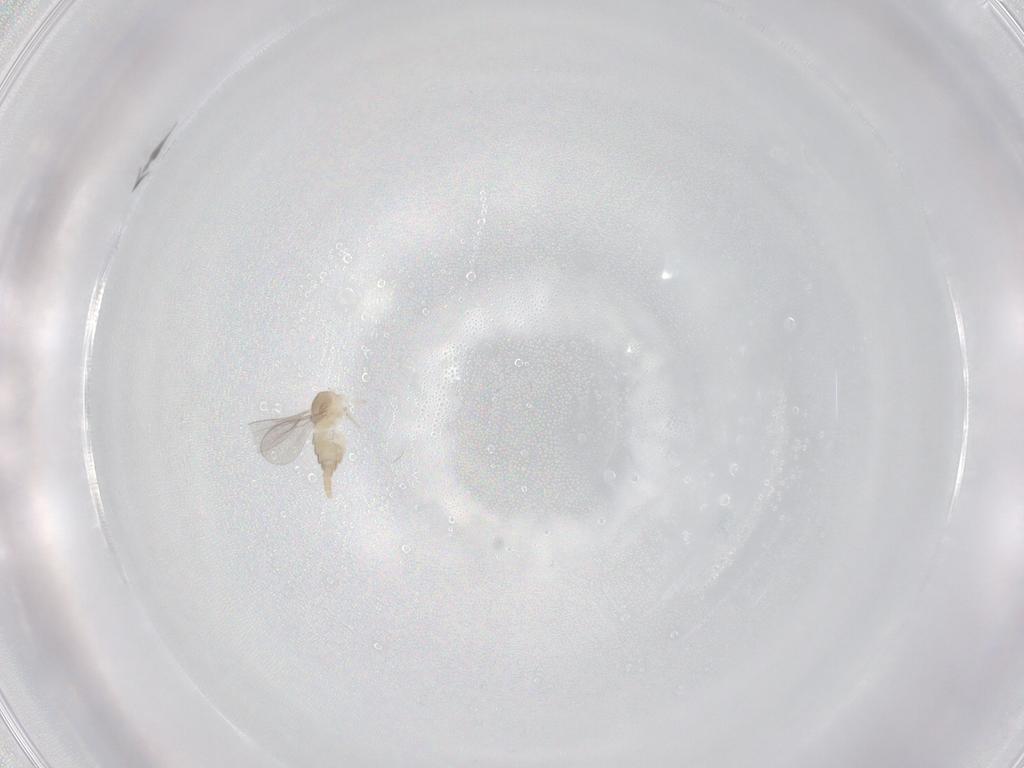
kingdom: Animalia
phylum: Arthropoda
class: Insecta
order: Diptera
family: Cecidomyiidae
